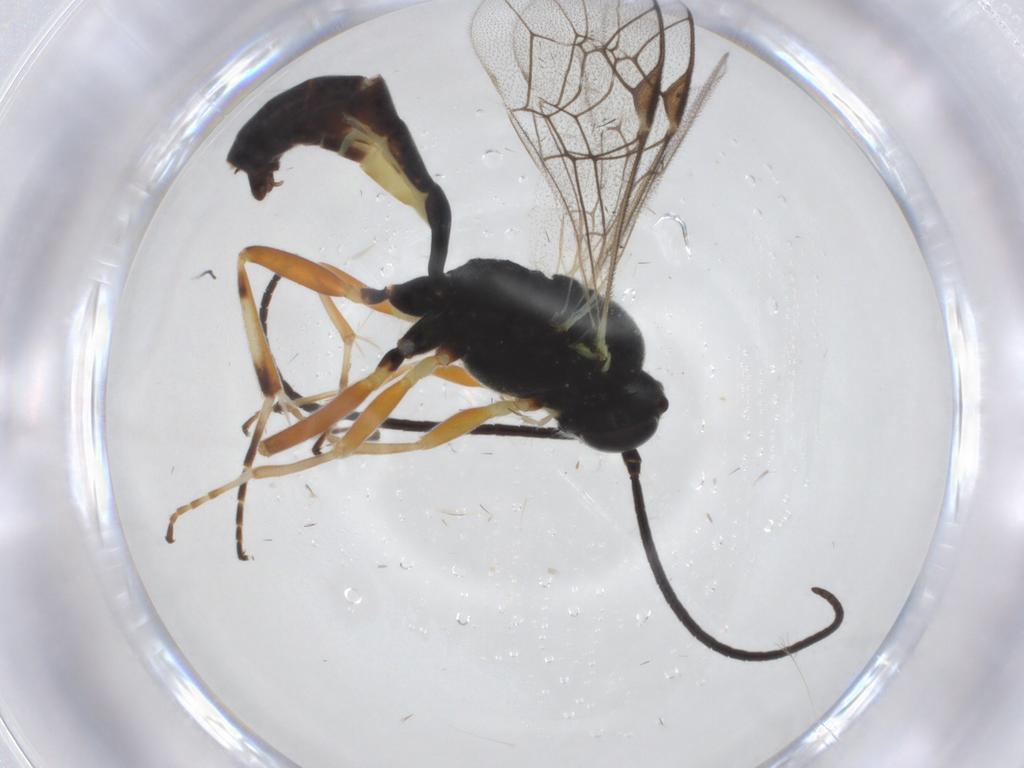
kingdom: Animalia
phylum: Arthropoda
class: Insecta
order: Hymenoptera
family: Ichneumonidae
